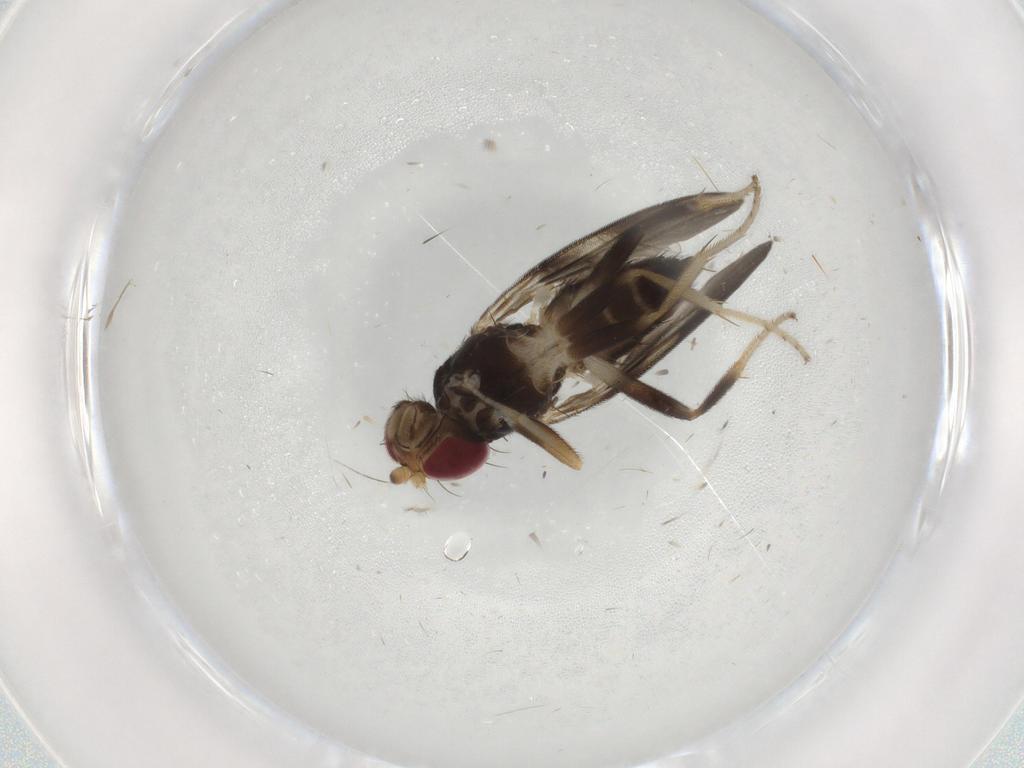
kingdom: Animalia
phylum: Arthropoda
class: Insecta
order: Diptera
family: Clusiidae
